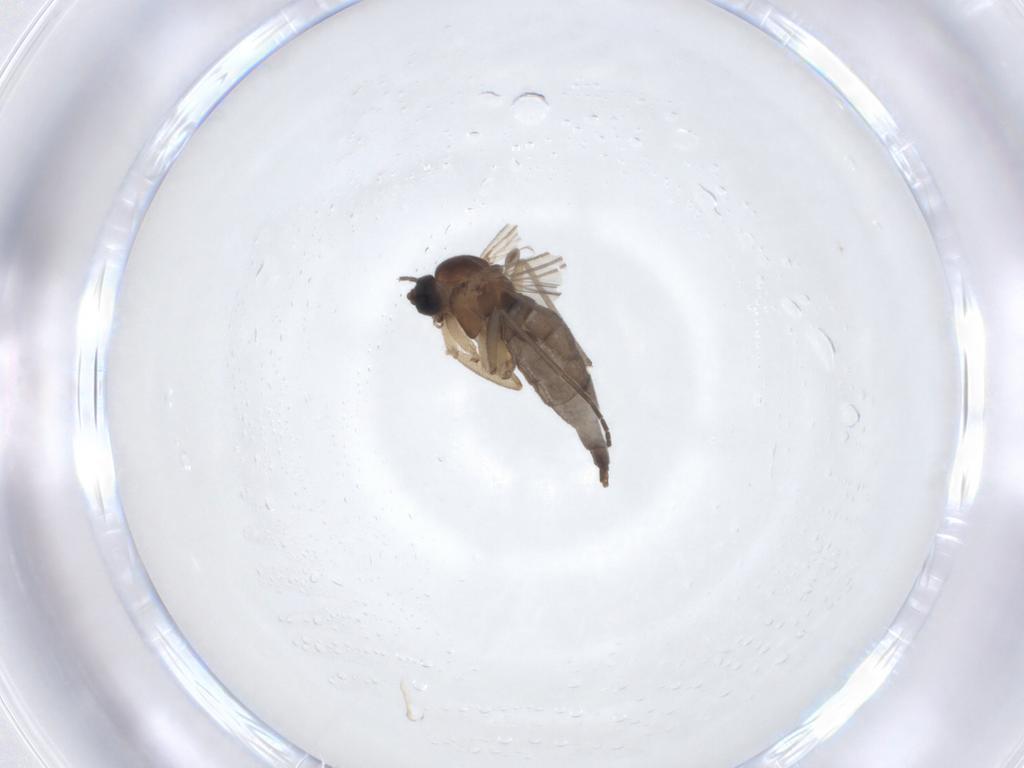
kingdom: Animalia
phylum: Arthropoda
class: Insecta
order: Diptera
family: Sciaridae
